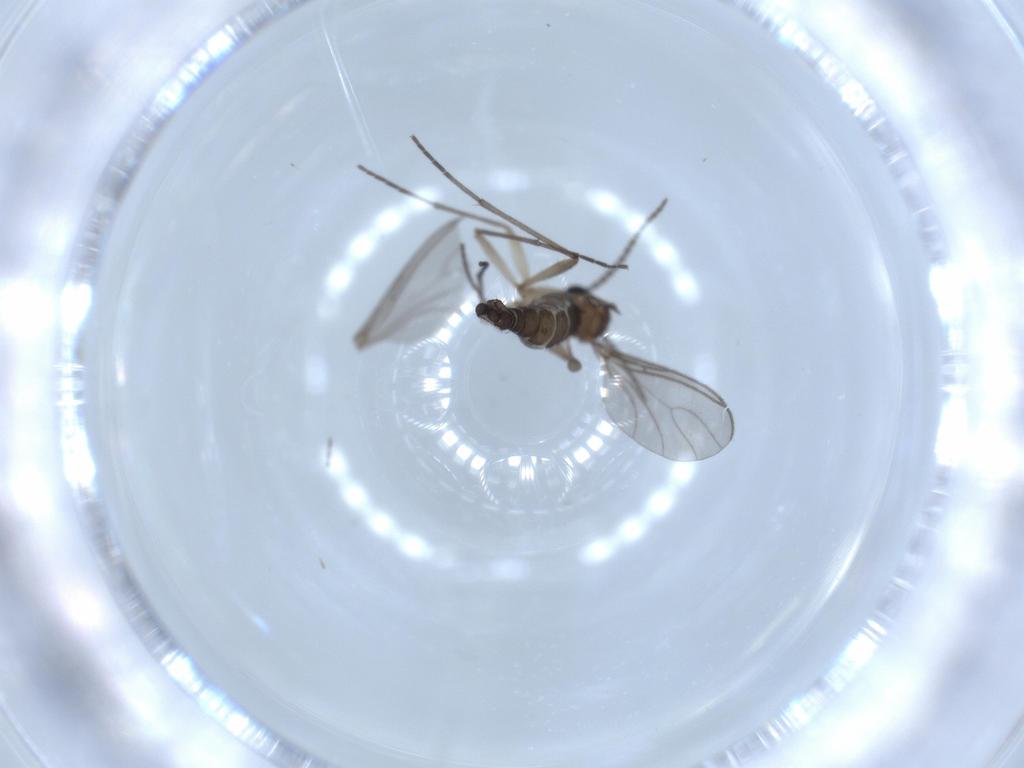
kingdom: Animalia
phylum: Arthropoda
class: Insecta
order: Diptera
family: Sciaridae
